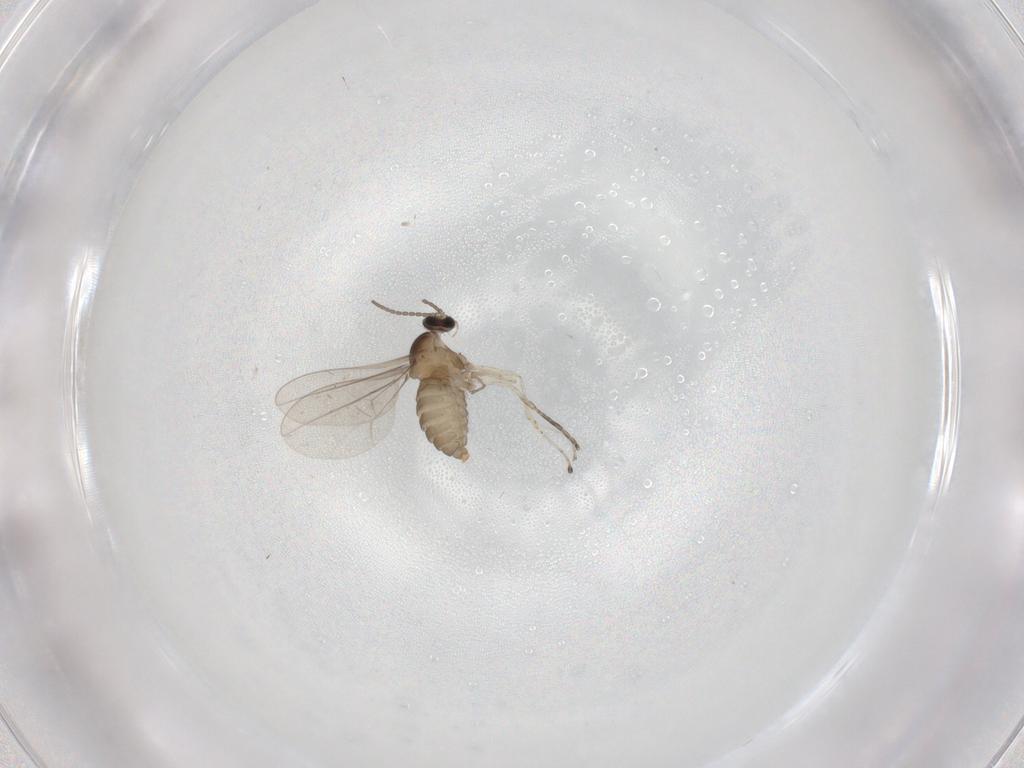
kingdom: Animalia
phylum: Arthropoda
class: Insecta
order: Diptera
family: Cecidomyiidae
